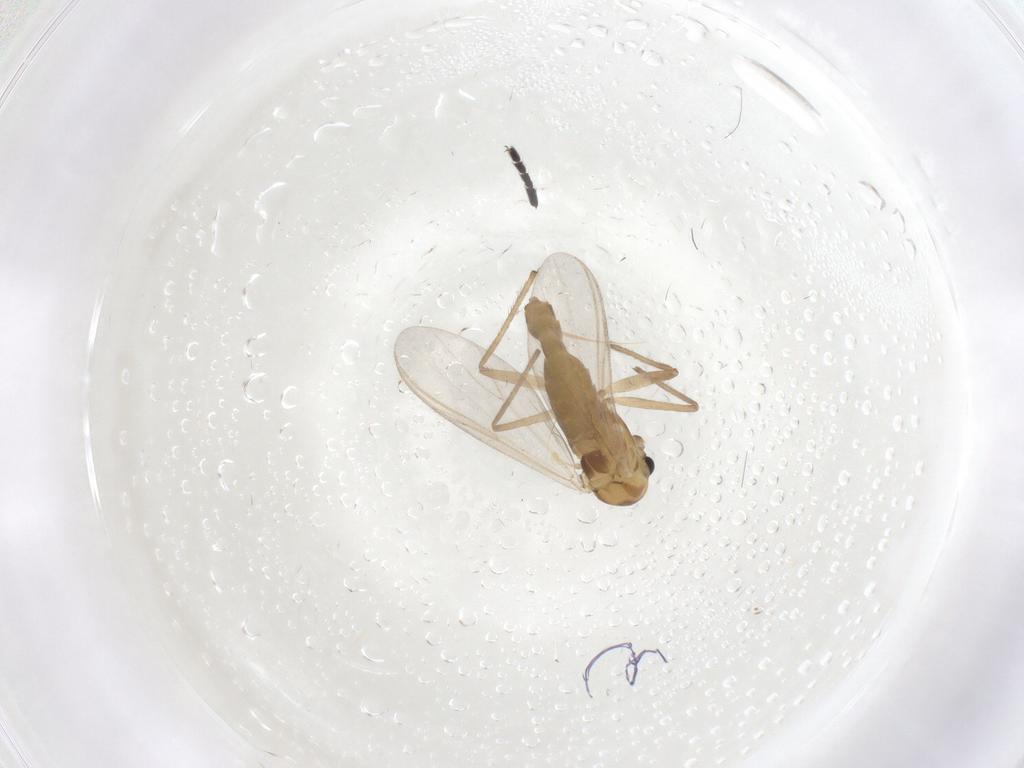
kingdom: Animalia
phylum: Arthropoda
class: Insecta
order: Diptera
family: Chironomidae
